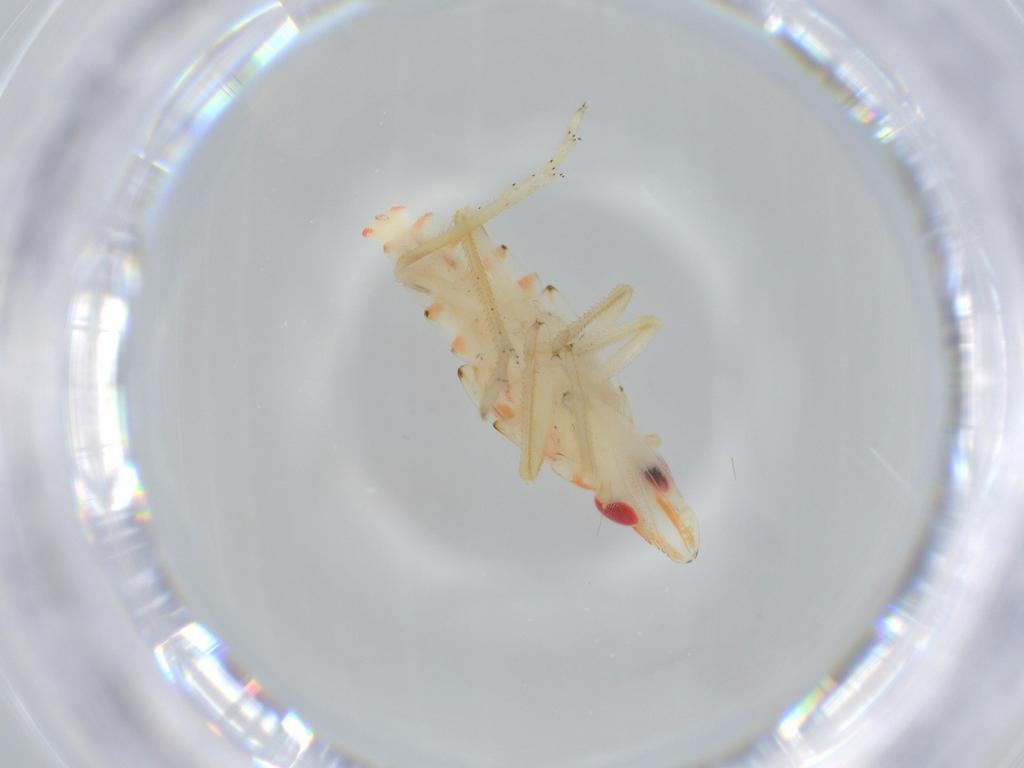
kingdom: Animalia
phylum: Arthropoda
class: Insecta
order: Hemiptera
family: Tropiduchidae
